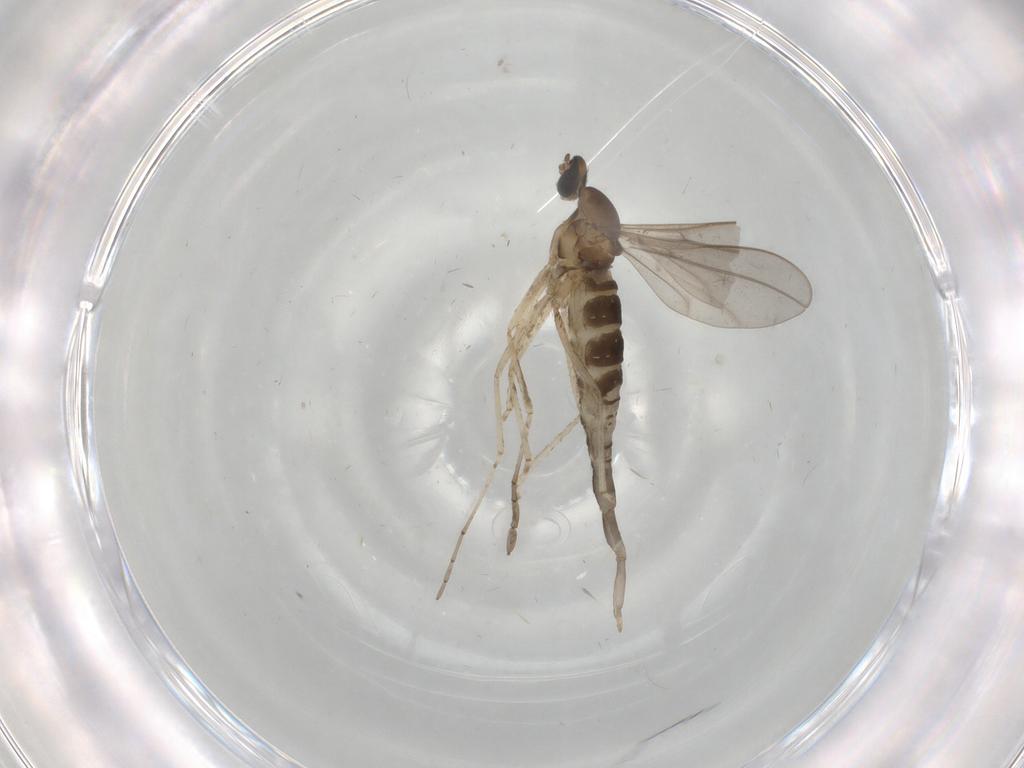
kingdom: Animalia
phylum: Arthropoda
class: Insecta
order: Diptera
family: Cecidomyiidae
